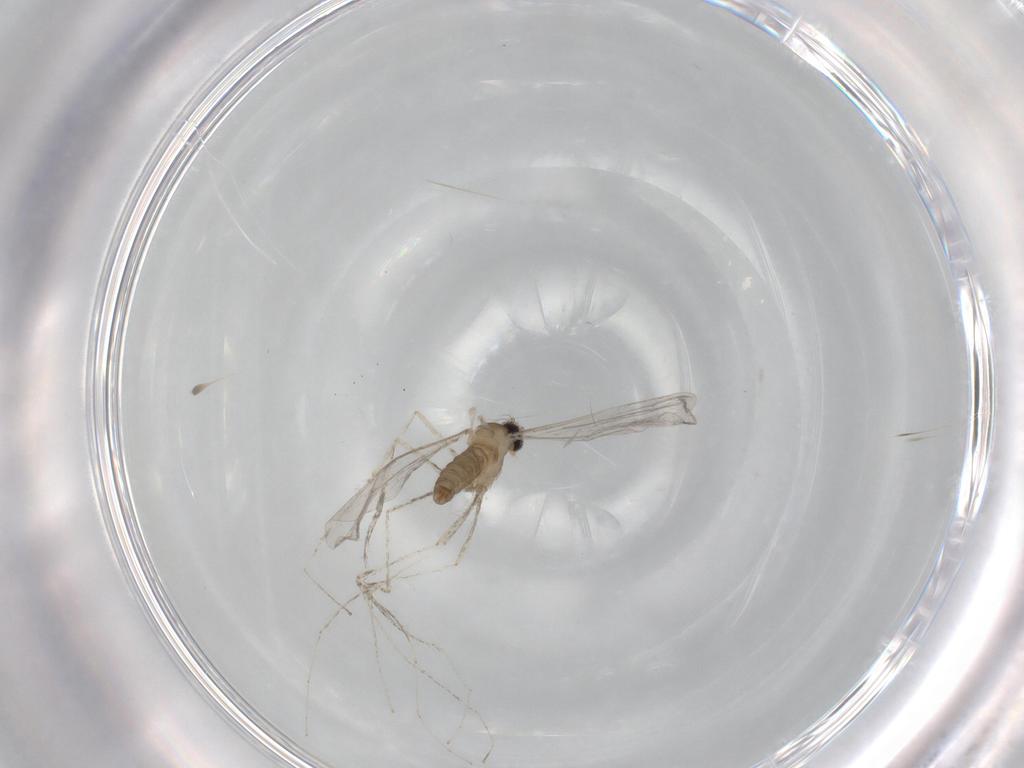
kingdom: Animalia
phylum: Arthropoda
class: Insecta
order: Diptera
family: Cecidomyiidae
